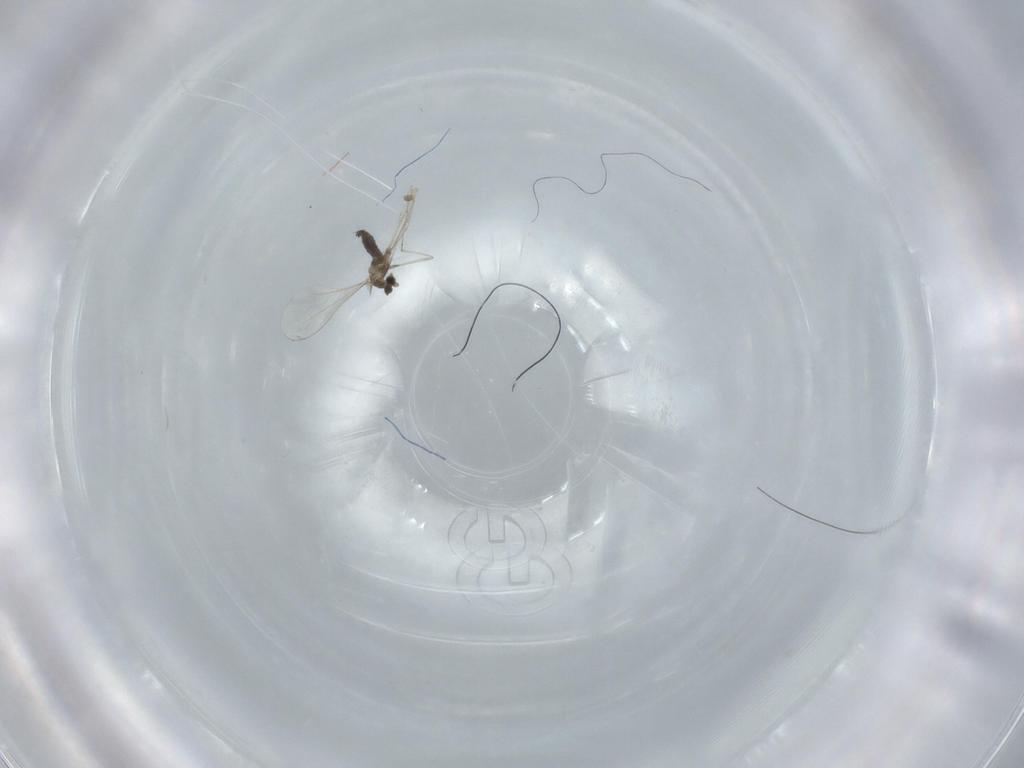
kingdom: Animalia
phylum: Arthropoda
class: Insecta
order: Diptera
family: Cecidomyiidae
